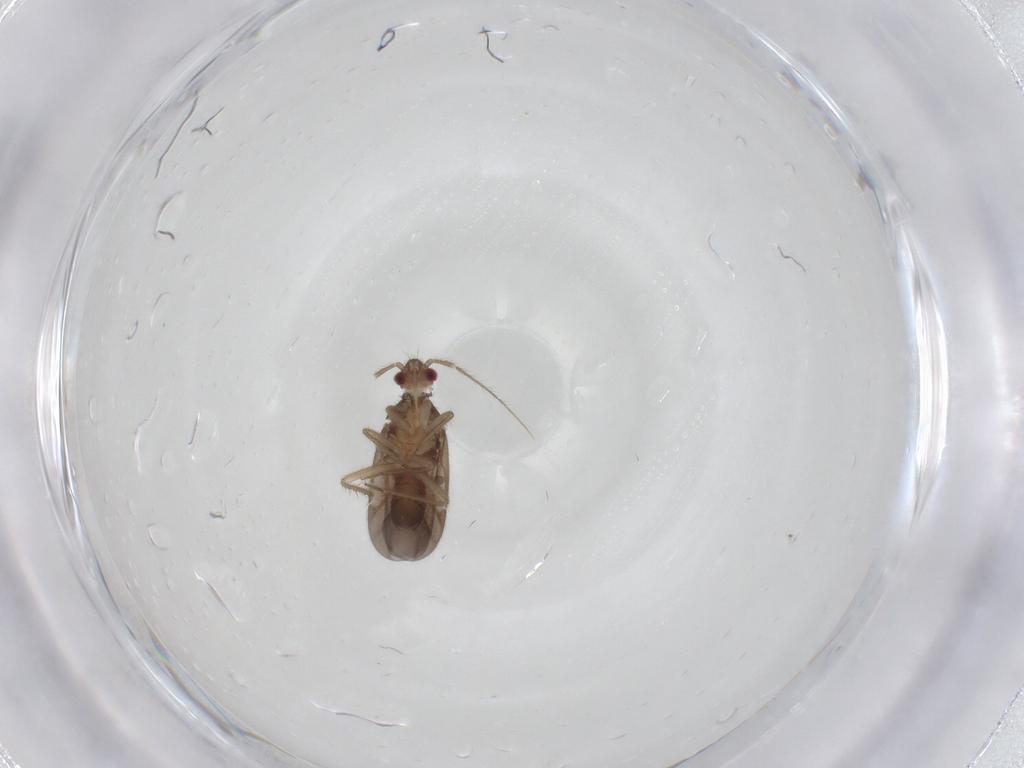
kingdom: Animalia
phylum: Arthropoda
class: Insecta
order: Hemiptera
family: Ceratocombidae
